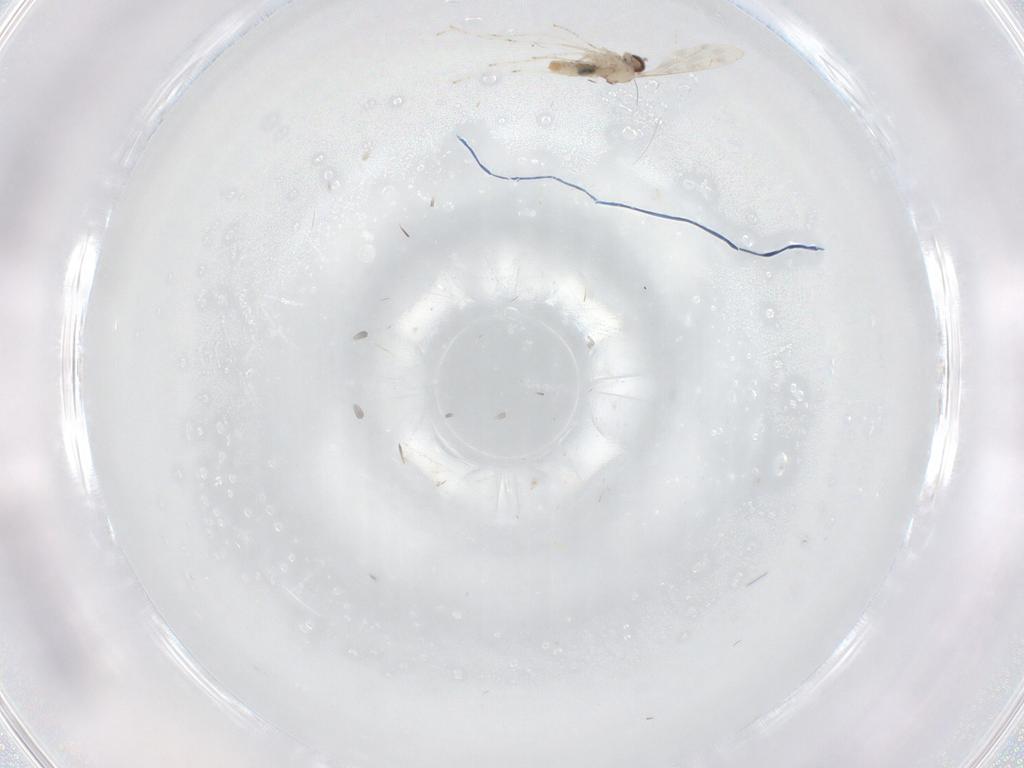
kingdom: Animalia
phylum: Arthropoda
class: Insecta
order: Diptera
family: Cecidomyiidae
